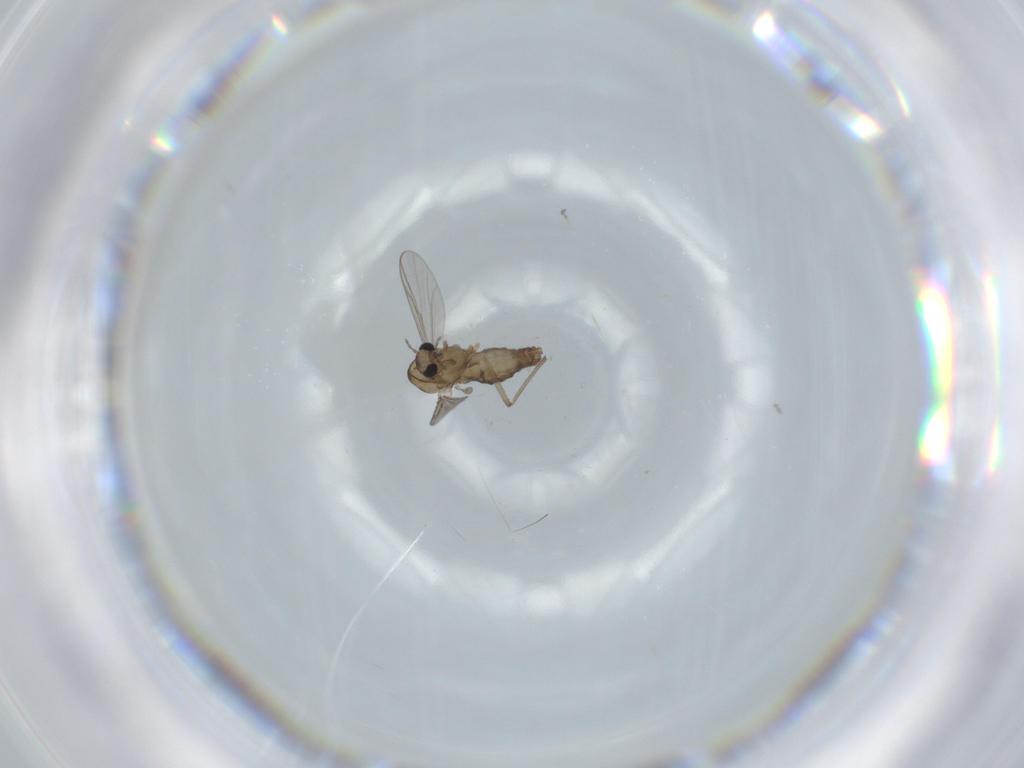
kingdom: Animalia
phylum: Arthropoda
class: Insecta
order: Diptera
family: Chironomidae
